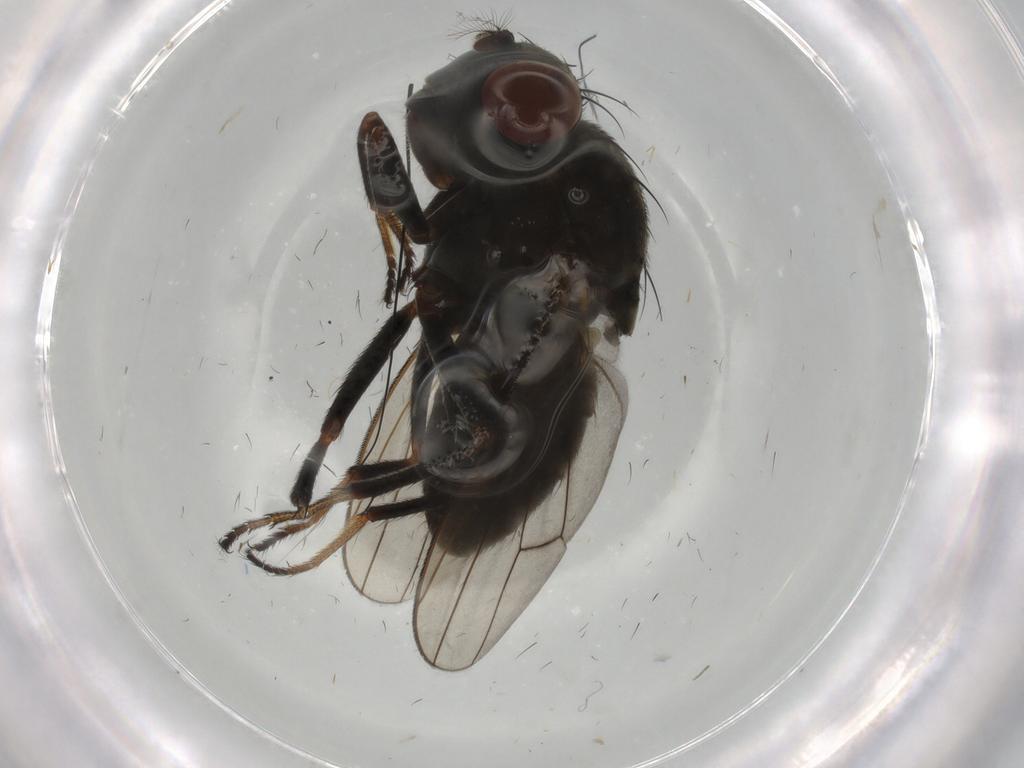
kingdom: Animalia
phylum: Arthropoda
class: Insecta
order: Diptera
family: Ephydridae
